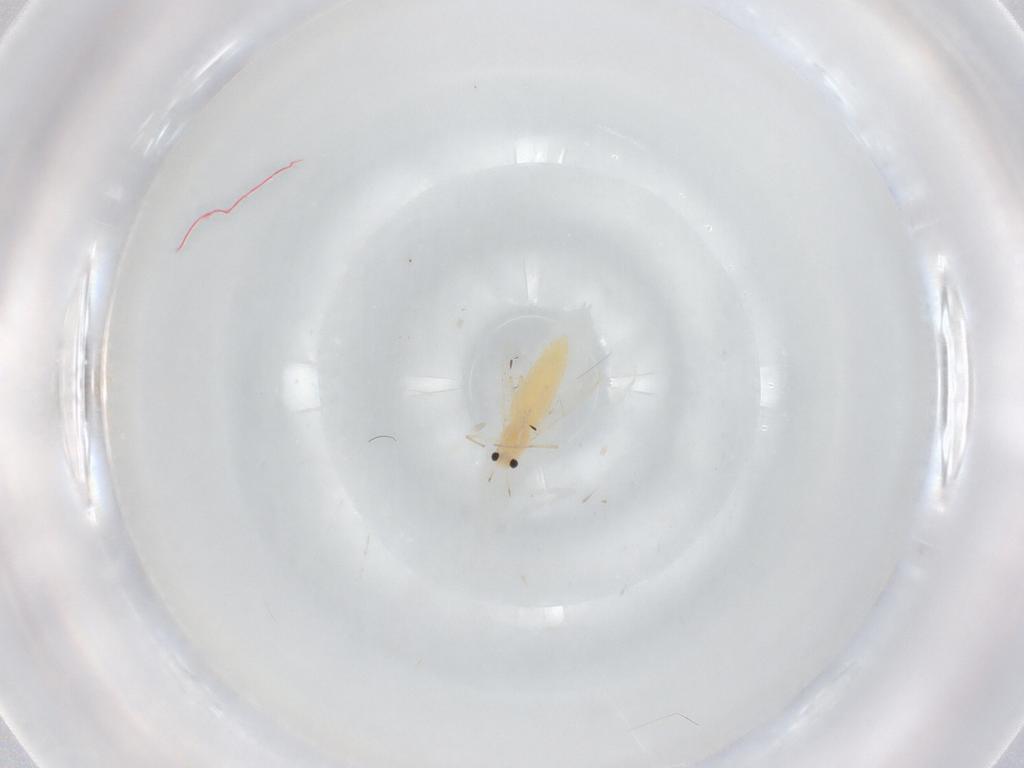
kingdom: Animalia
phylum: Arthropoda
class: Insecta
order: Diptera
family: Chironomidae
